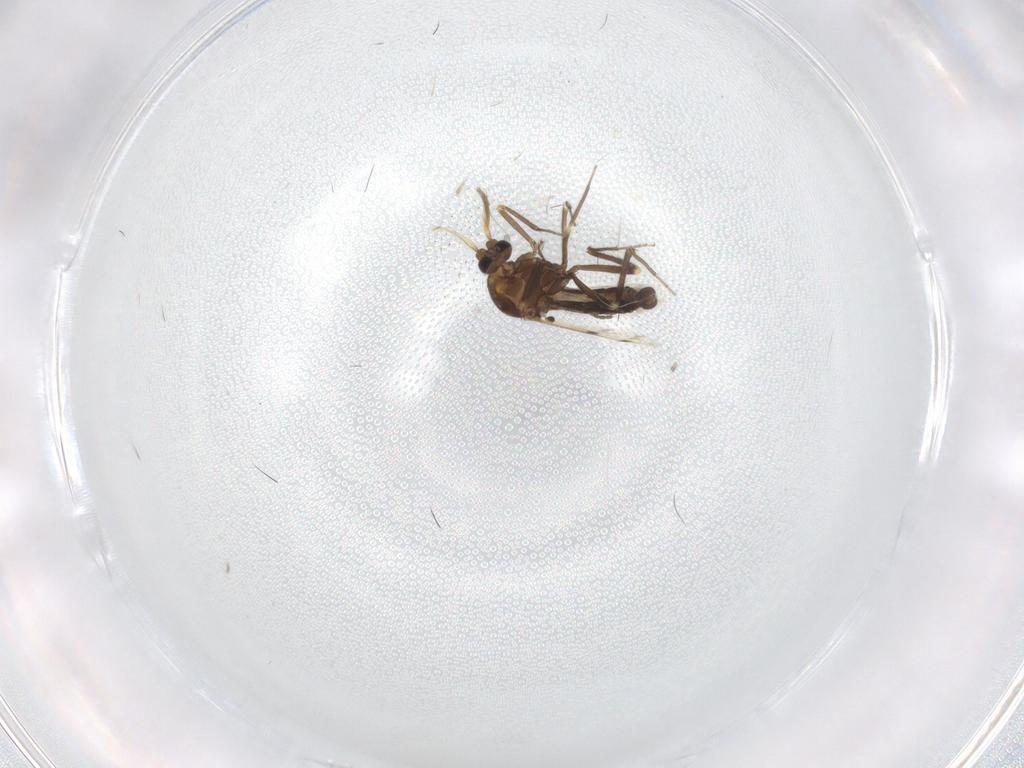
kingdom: Animalia
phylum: Arthropoda
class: Insecta
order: Diptera
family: Ceratopogonidae
